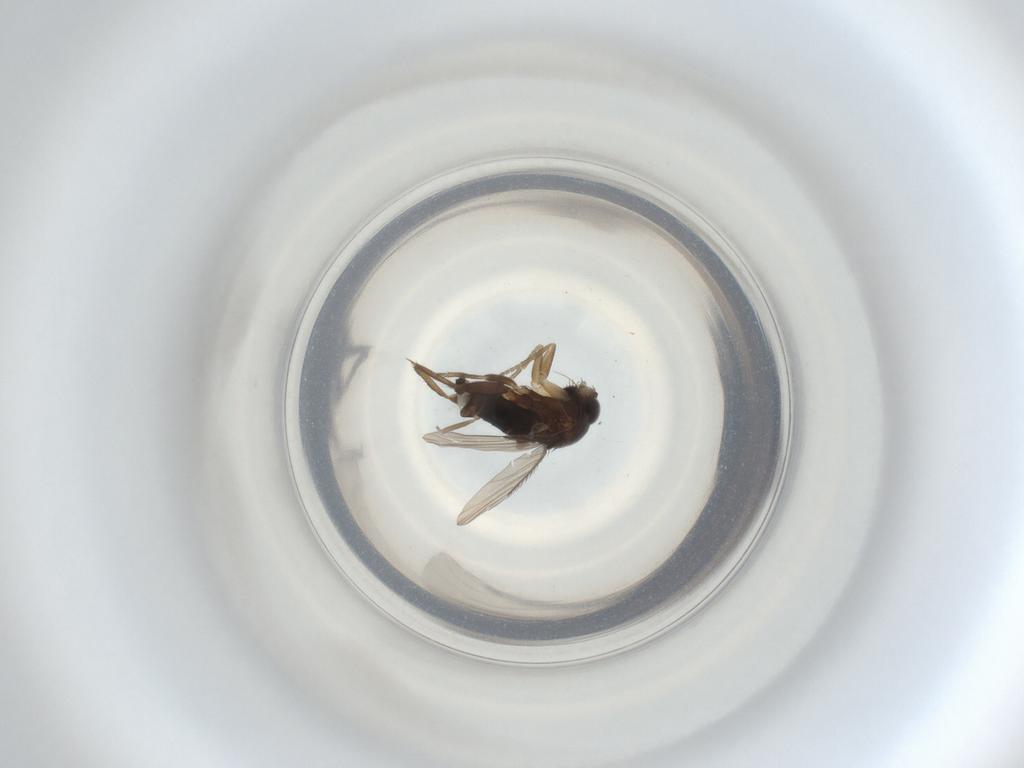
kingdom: Animalia
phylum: Arthropoda
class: Insecta
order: Diptera
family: Phoridae
